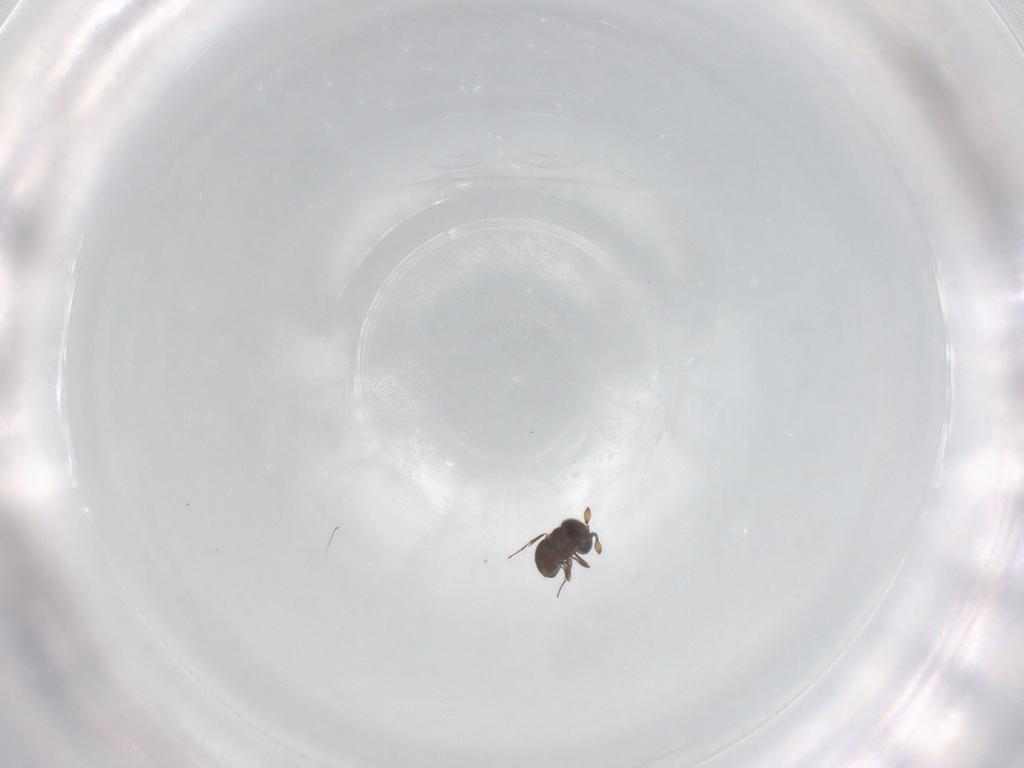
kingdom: Animalia
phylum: Arthropoda
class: Insecta
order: Hymenoptera
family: Scelionidae
